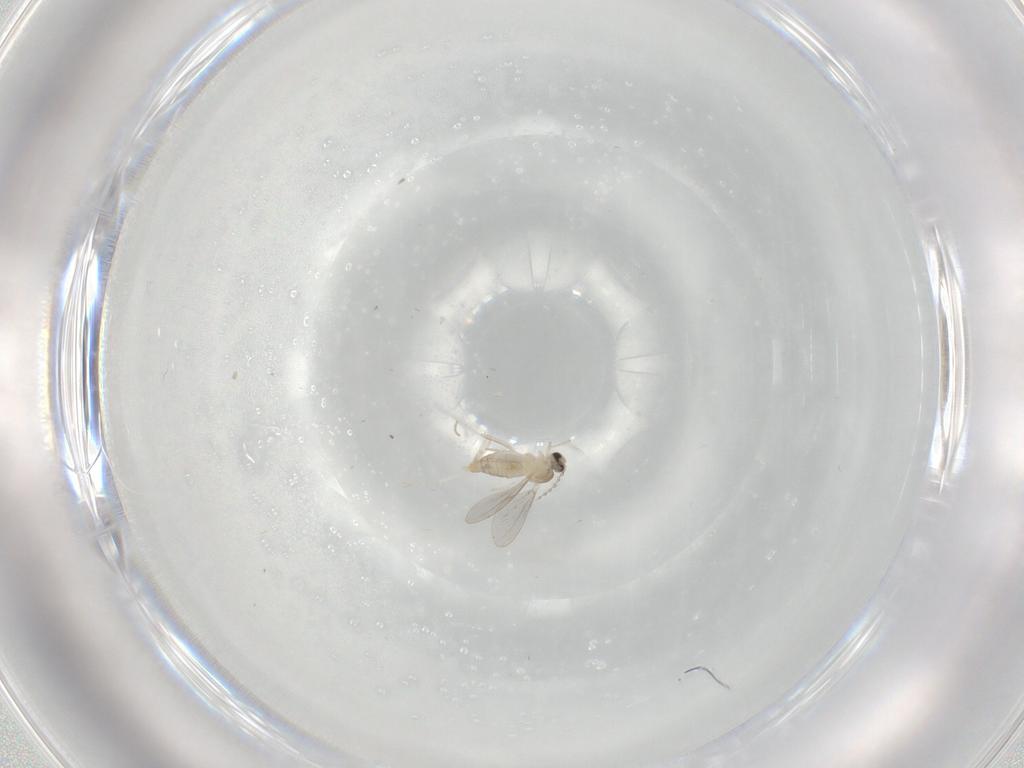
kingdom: Animalia
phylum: Arthropoda
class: Insecta
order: Diptera
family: Cecidomyiidae
